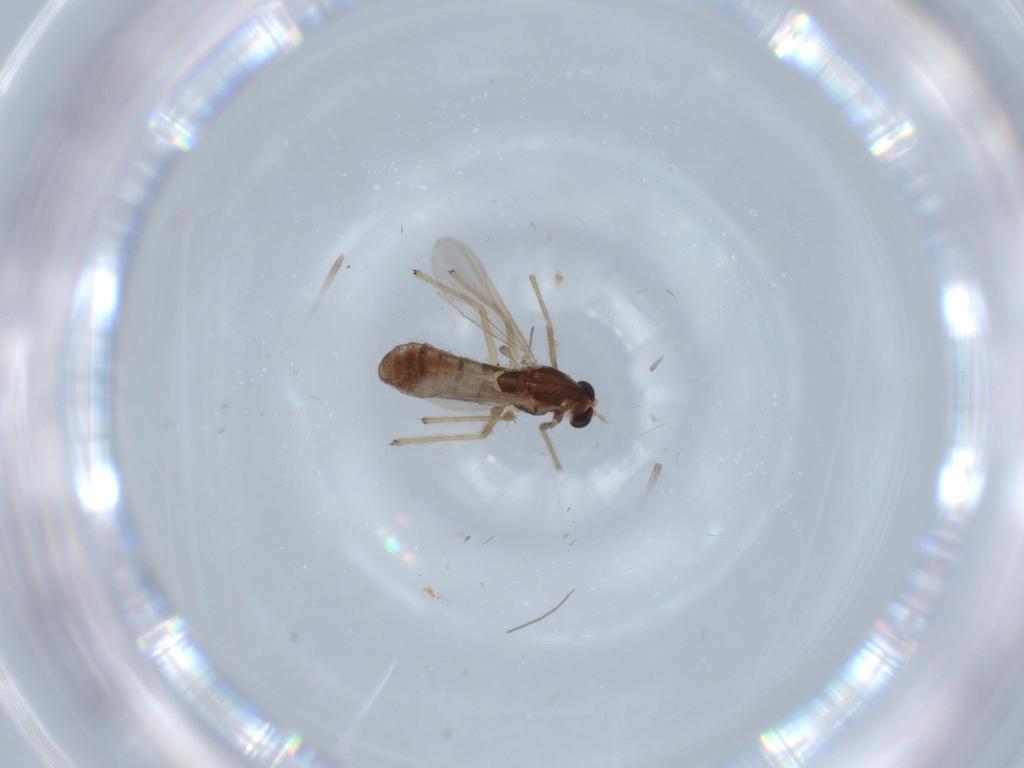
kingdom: Animalia
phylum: Arthropoda
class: Insecta
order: Diptera
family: Chironomidae
